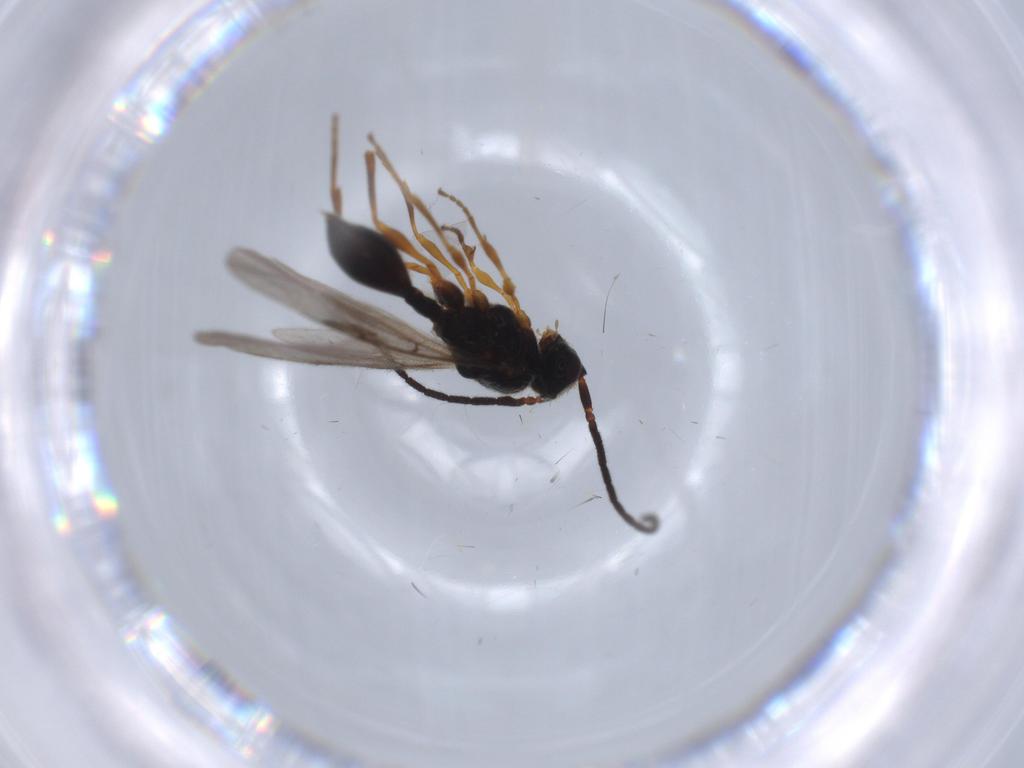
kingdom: Animalia
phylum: Arthropoda
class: Insecta
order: Hymenoptera
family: Diapriidae
